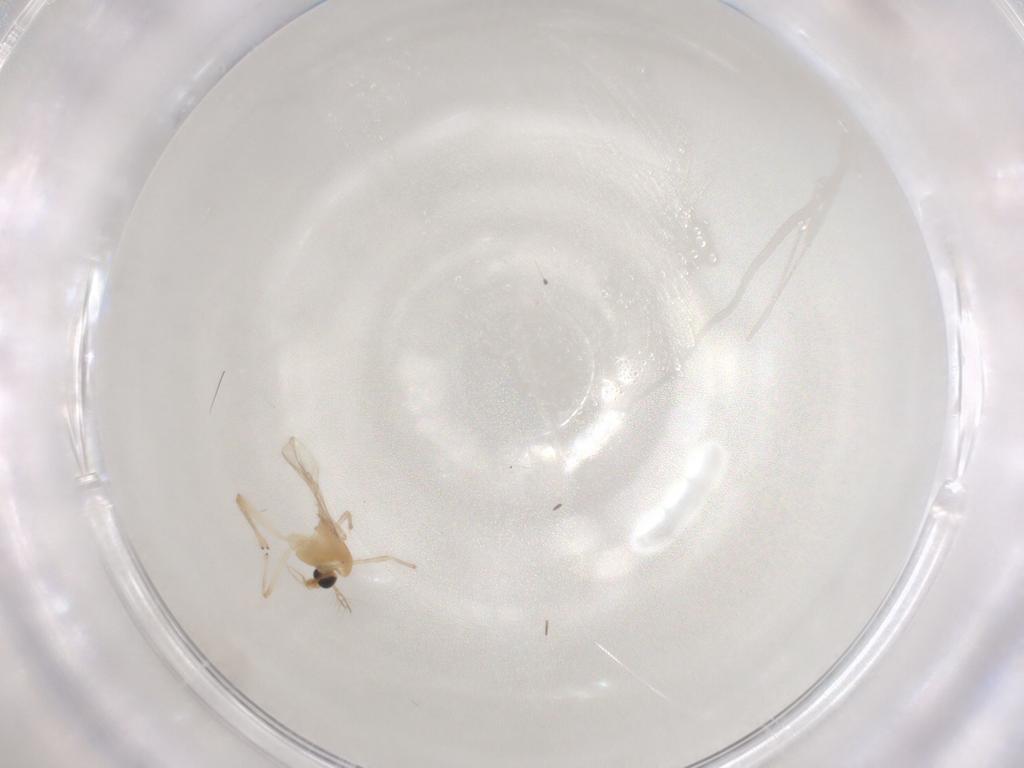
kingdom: Animalia
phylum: Arthropoda
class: Insecta
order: Diptera
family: Chironomidae
